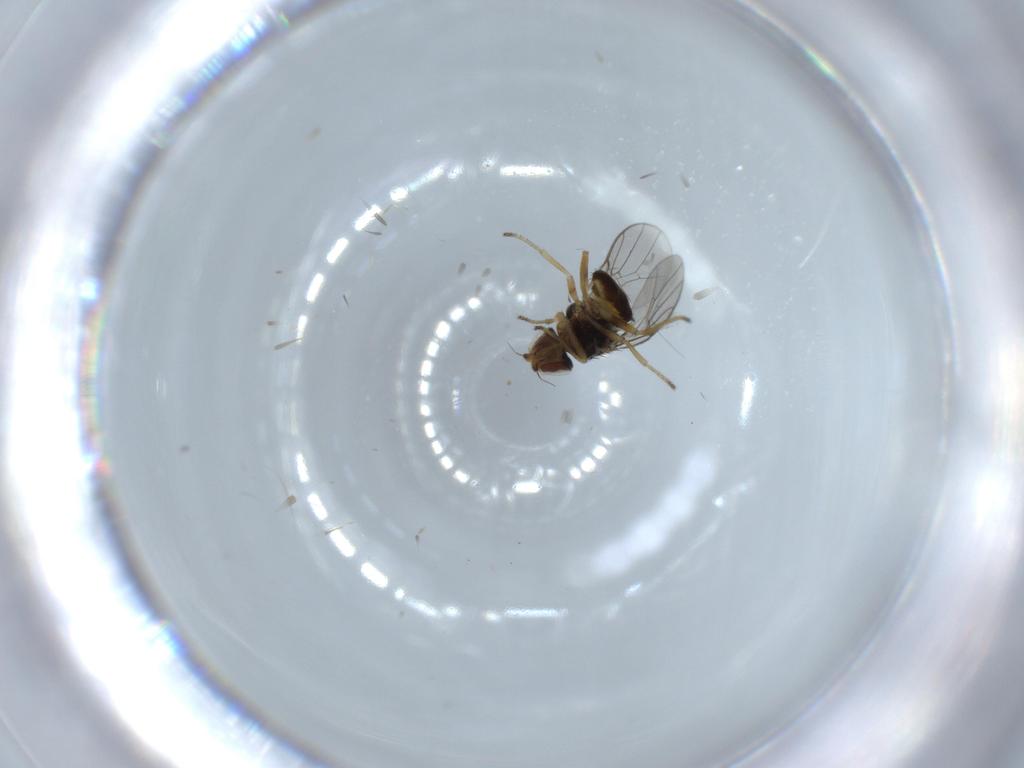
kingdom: Animalia
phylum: Arthropoda
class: Insecta
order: Diptera
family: Chloropidae
